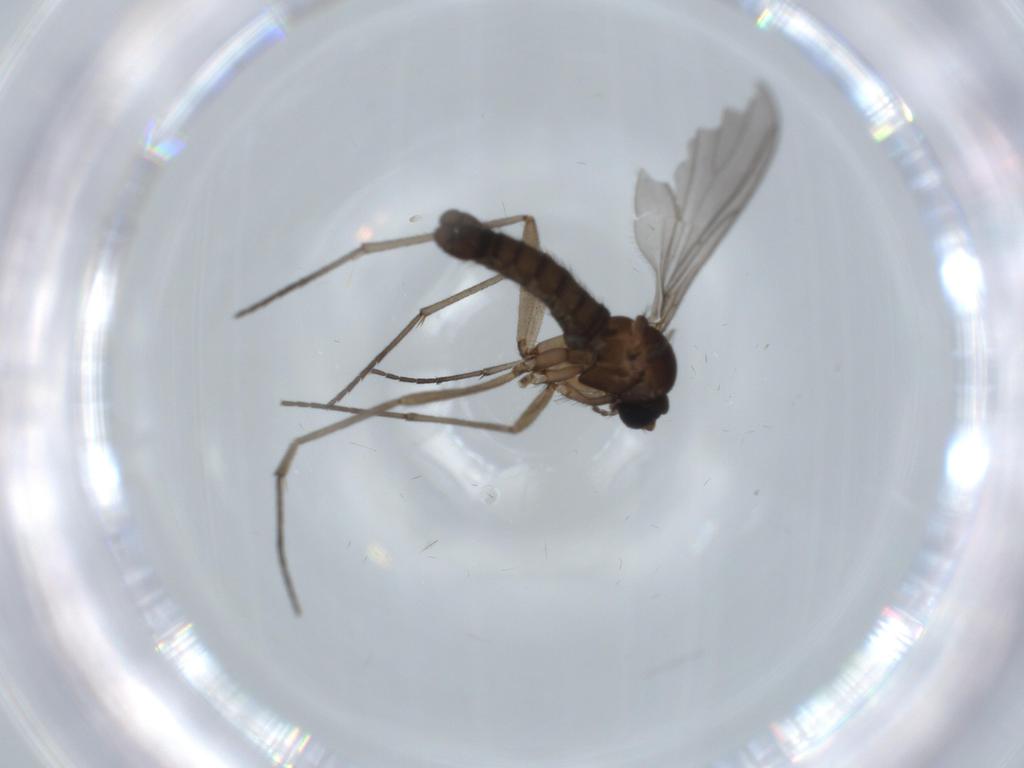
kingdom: Animalia
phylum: Arthropoda
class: Insecta
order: Diptera
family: Sciaridae
